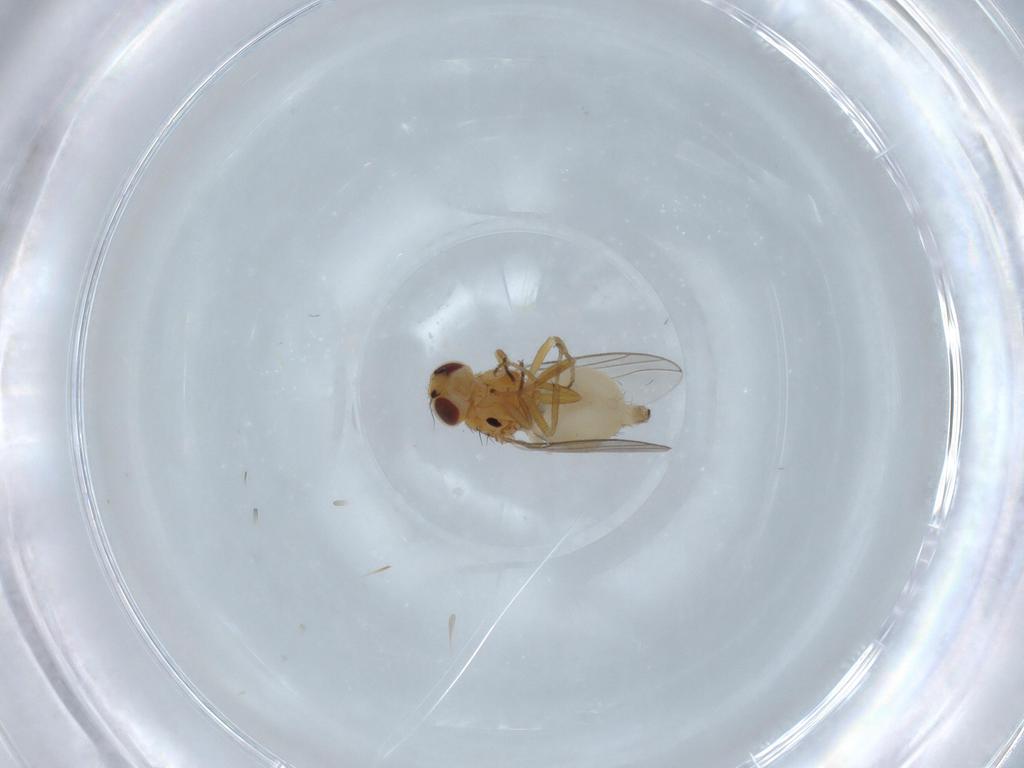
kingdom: Animalia
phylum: Arthropoda
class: Insecta
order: Diptera
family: Chloropidae
